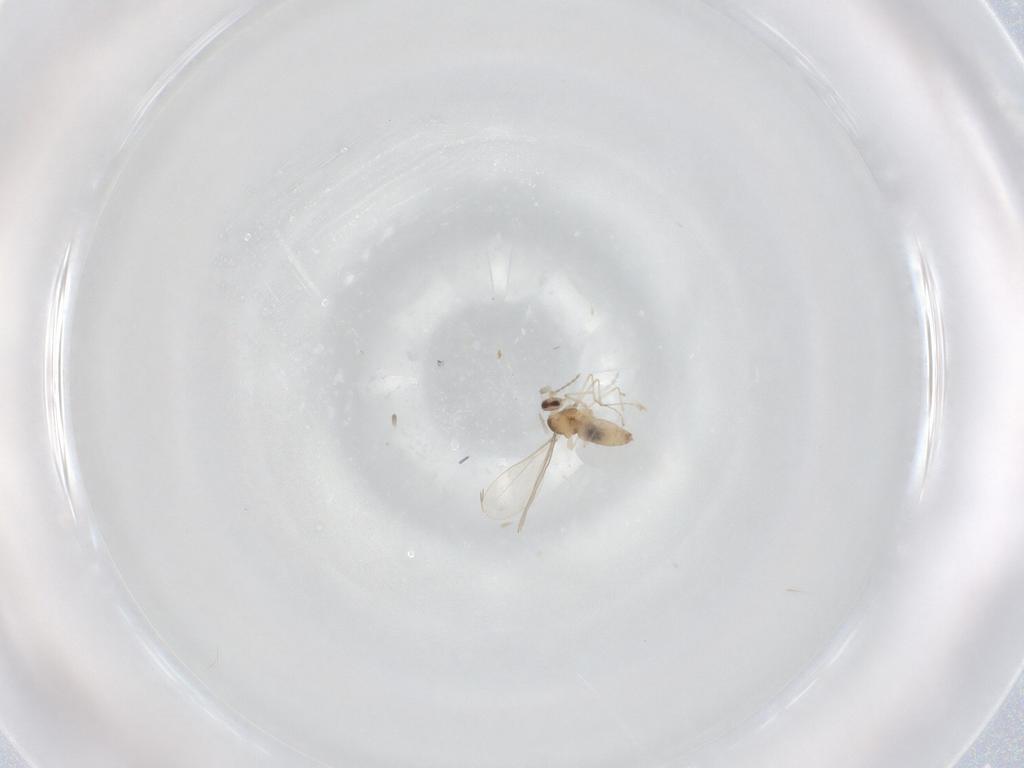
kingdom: Animalia
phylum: Arthropoda
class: Insecta
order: Diptera
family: Cecidomyiidae
